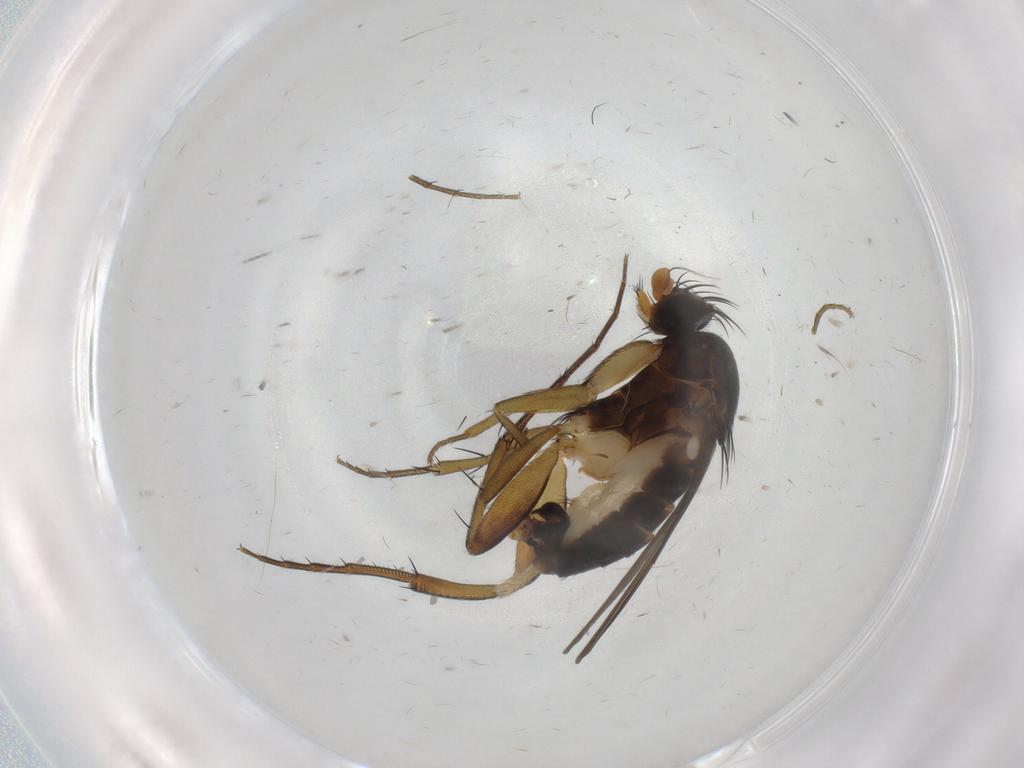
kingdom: Animalia
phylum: Arthropoda
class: Insecta
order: Diptera
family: Phoridae
